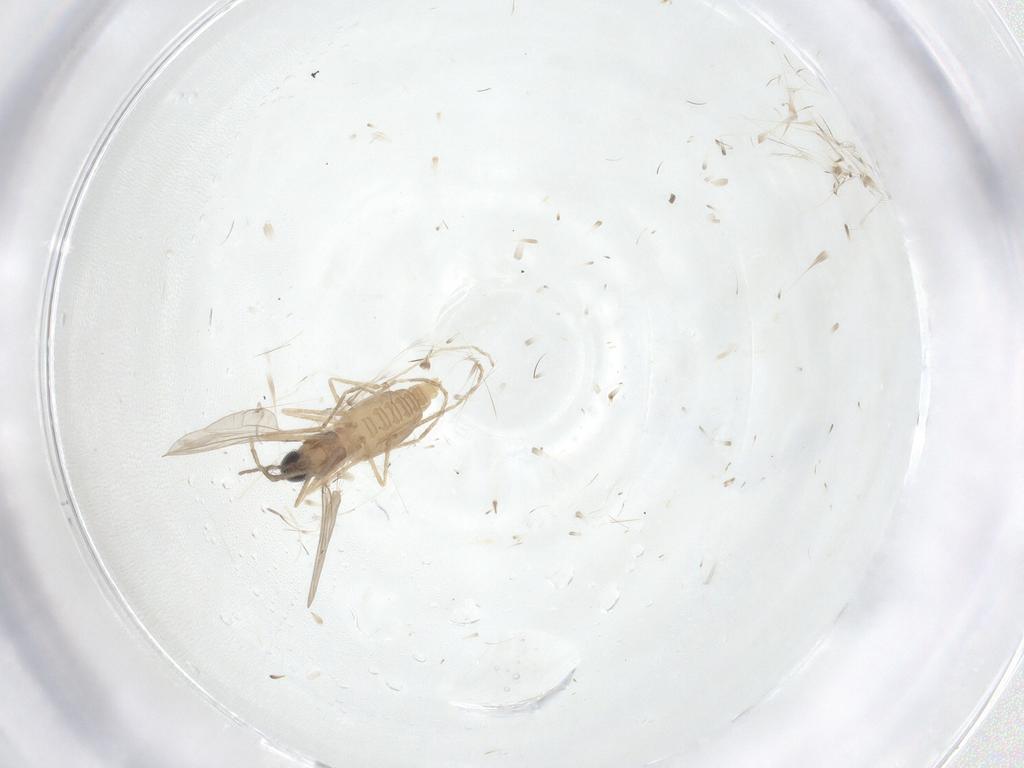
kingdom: Animalia
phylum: Arthropoda
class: Insecta
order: Diptera
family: Cecidomyiidae
